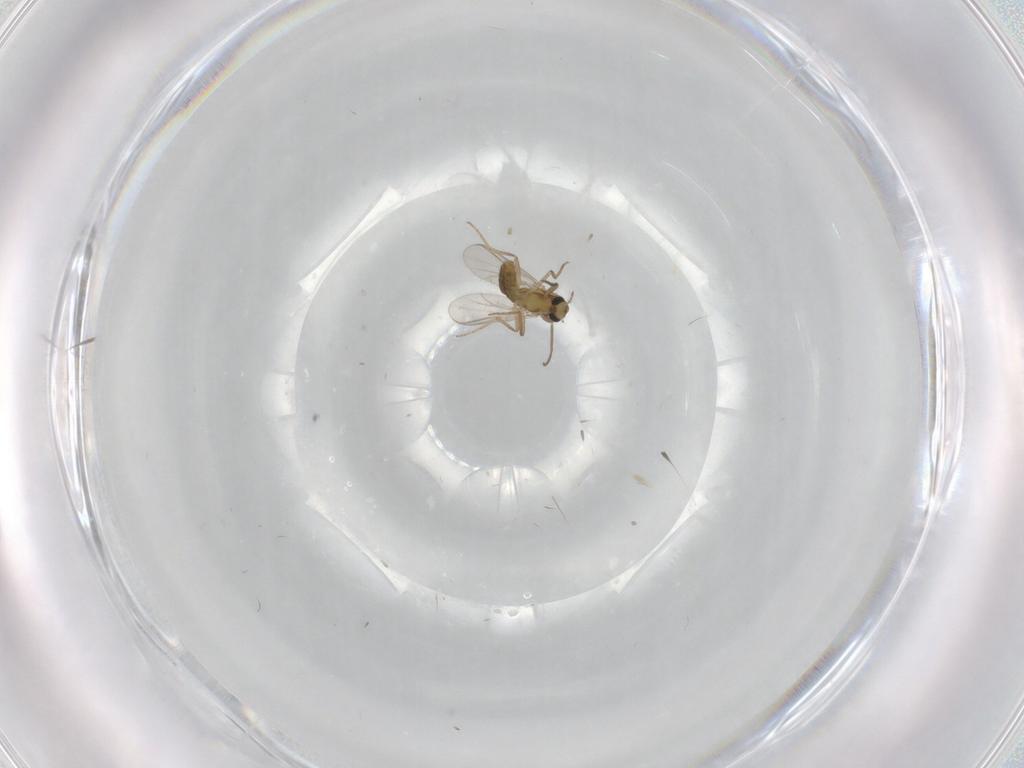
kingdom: Animalia
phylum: Arthropoda
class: Insecta
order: Diptera
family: Chironomidae
